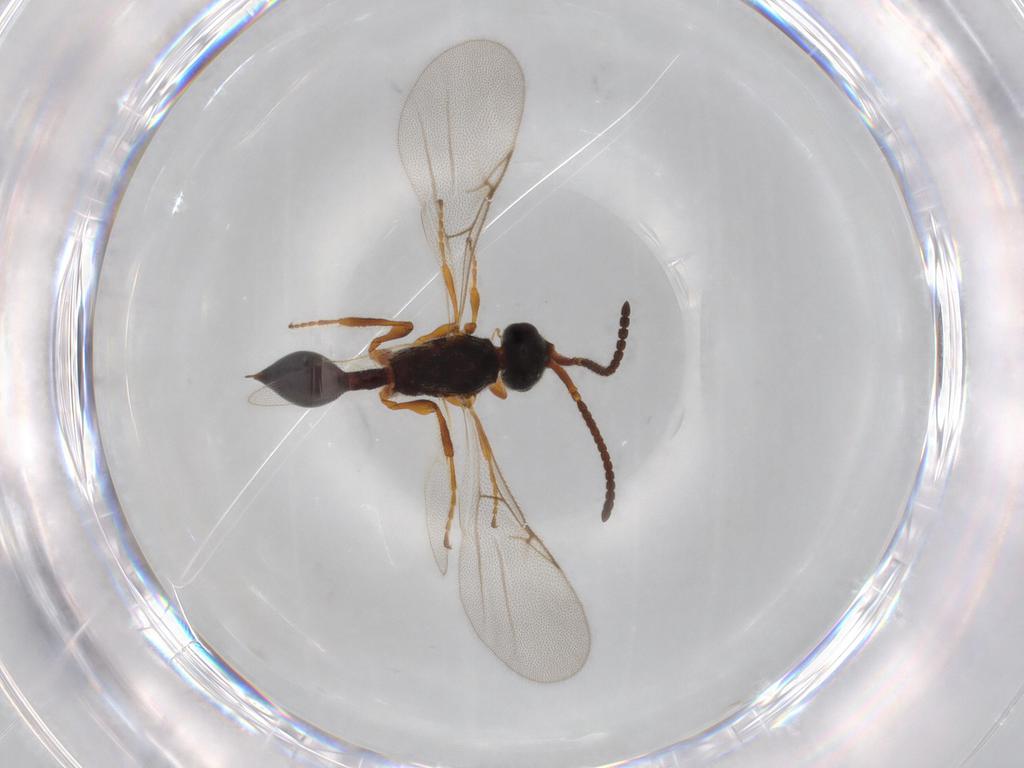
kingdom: Animalia
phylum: Arthropoda
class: Insecta
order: Hymenoptera
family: Diapriidae
